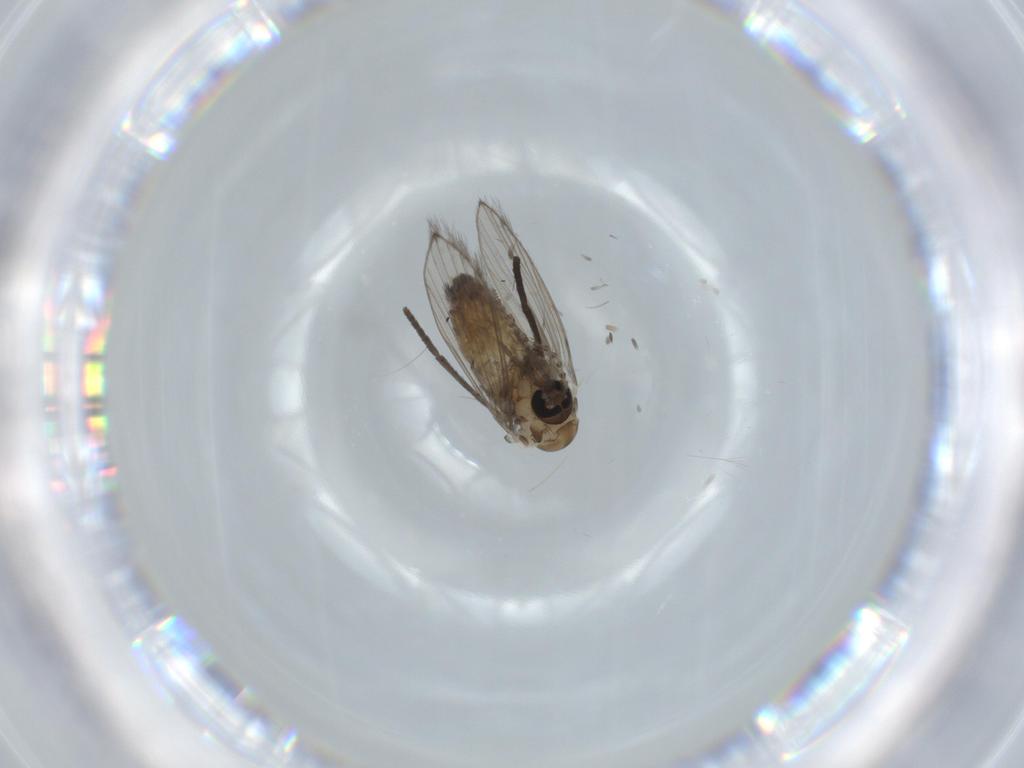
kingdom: Animalia
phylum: Arthropoda
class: Insecta
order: Diptera
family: Psychodidae
